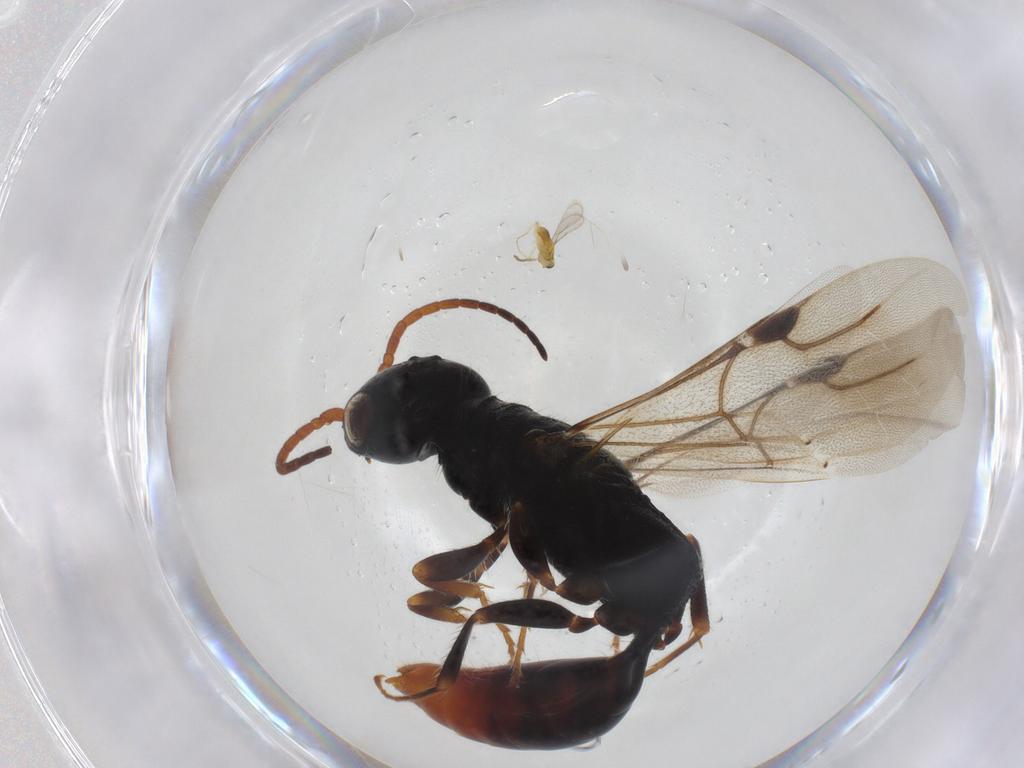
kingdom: Animalia
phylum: Arthropoda
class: Insecta
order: Hymenoptera
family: Bethylidae
